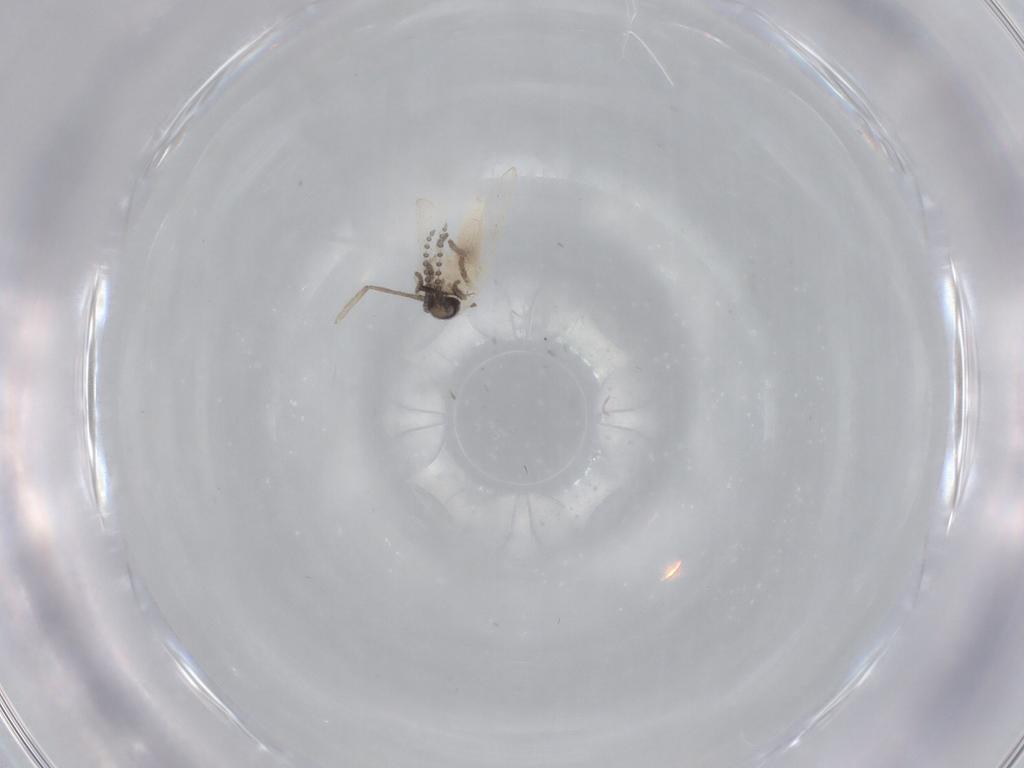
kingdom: Animalia
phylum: Arthropoda
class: Insecta
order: Diptera
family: Psychodidae
